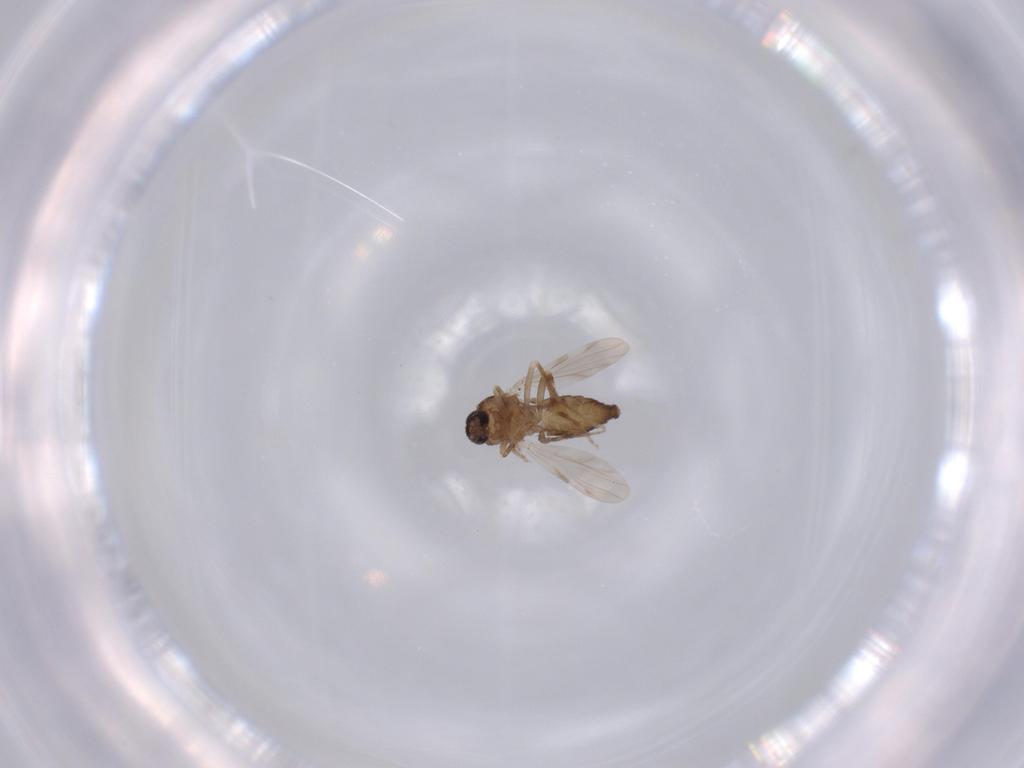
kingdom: Animalia
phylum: Arthropoda
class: Insecta
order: Diptera
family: Ceratopogonidae
